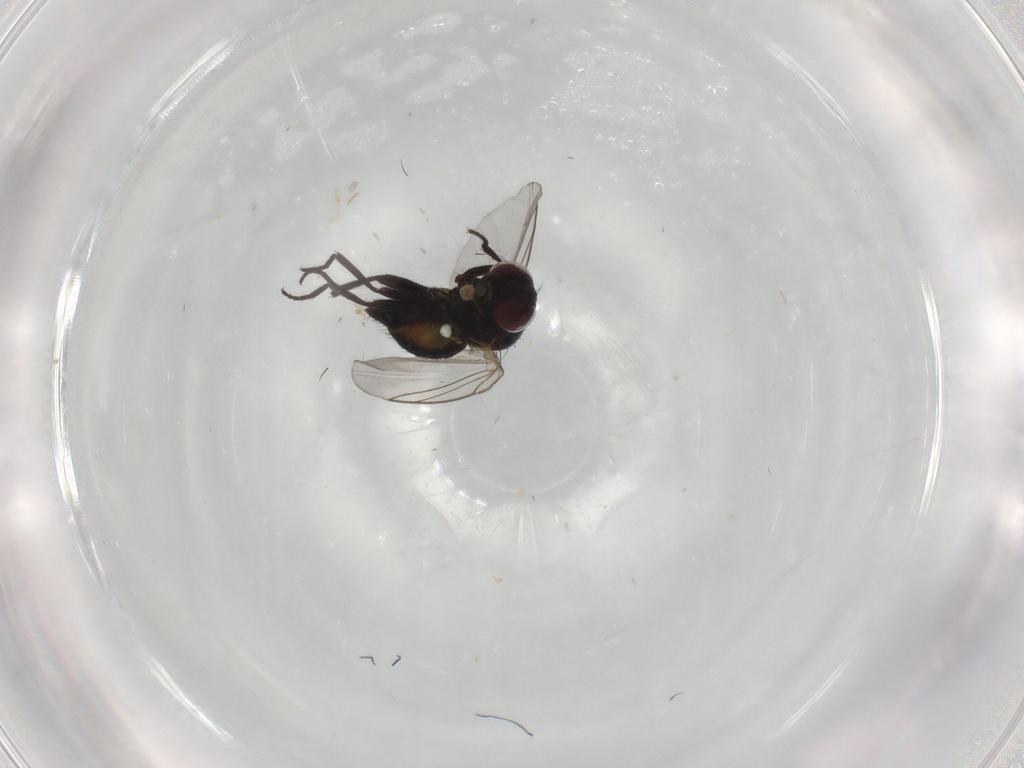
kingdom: Animalia
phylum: Arthropoda
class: Insecta
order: Diptera
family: Agromyzidae
